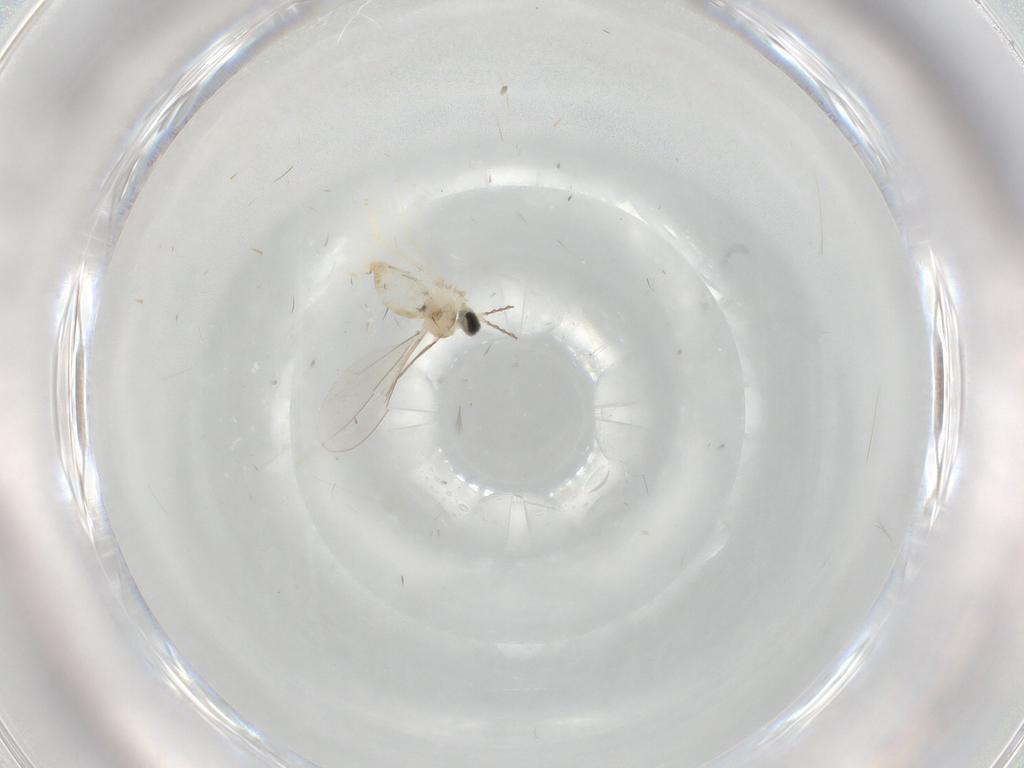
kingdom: Animalia
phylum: Arthropoda
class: Insecta
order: Diptera
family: Cecidomyiidae
